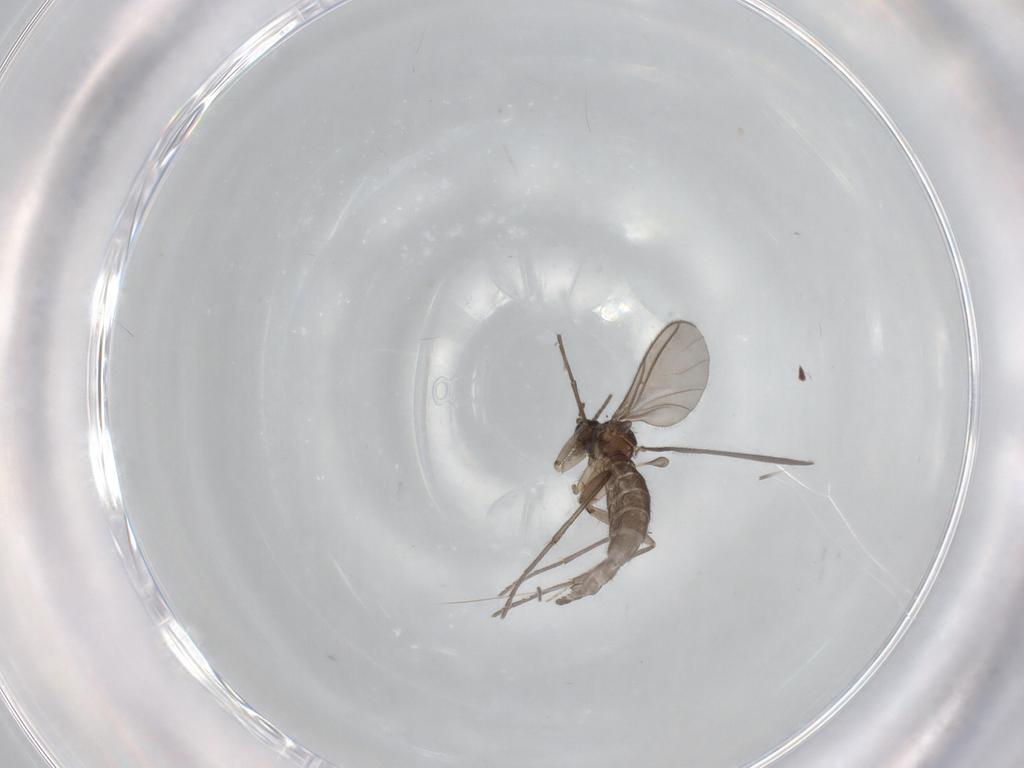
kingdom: Animalia
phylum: Arthropoda
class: Insecta
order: Diptera
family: Sciaridae
